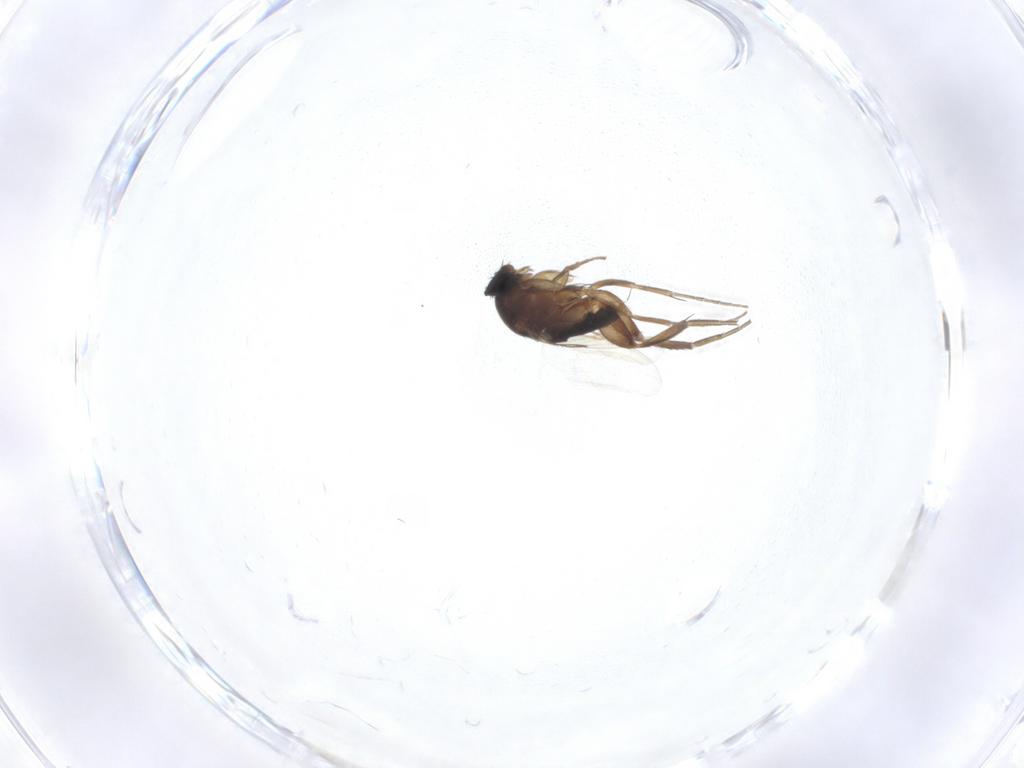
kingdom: Animalia
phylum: Arthropoda
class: Insecta
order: Diptera
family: Phoridae
